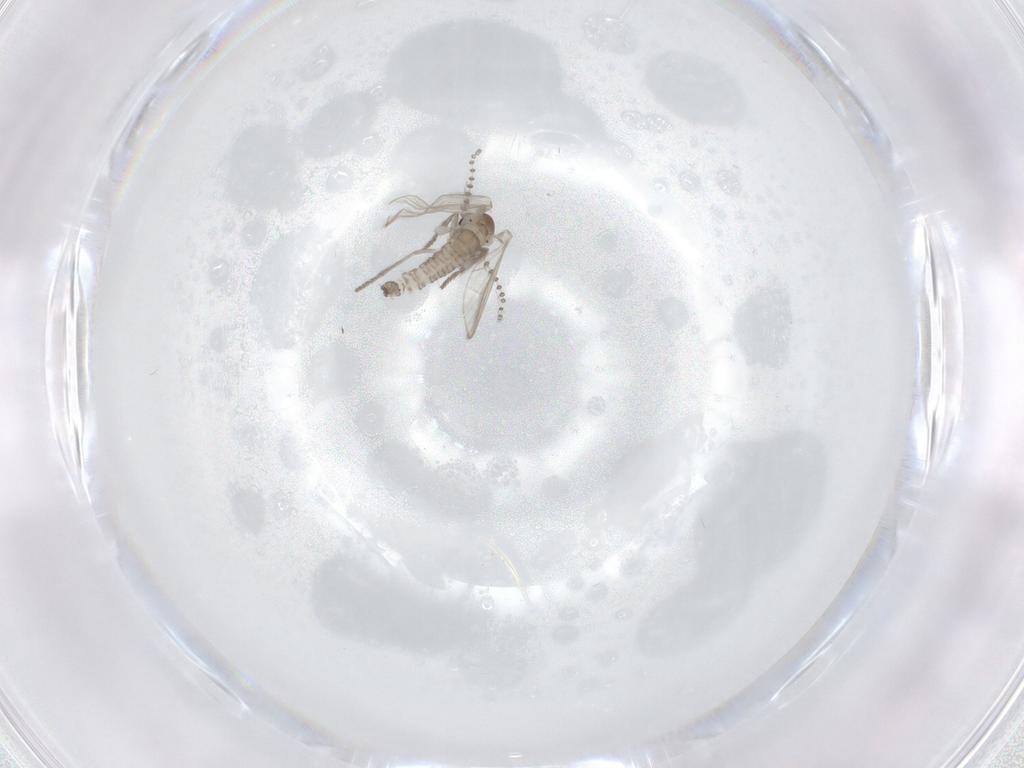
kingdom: Animalia
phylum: Arthropoda
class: Insecta
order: Diptera
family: Psychodidae
